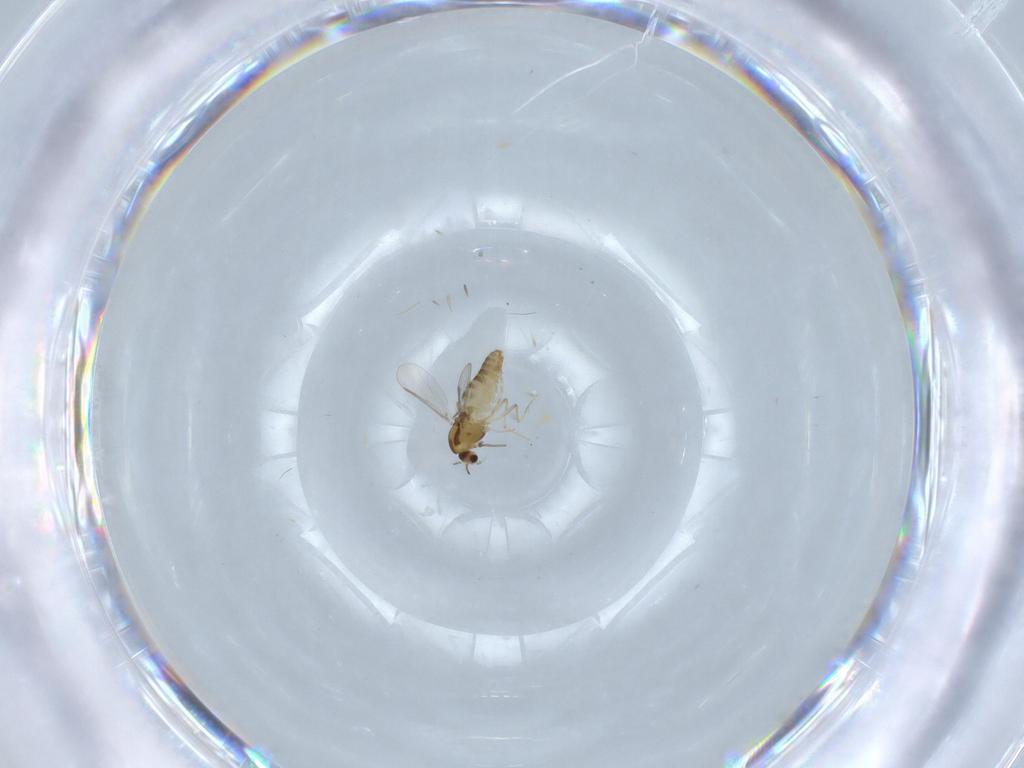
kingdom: Animalia
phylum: Arthropoda
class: Insecta
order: Diptera
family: Chironomidae
